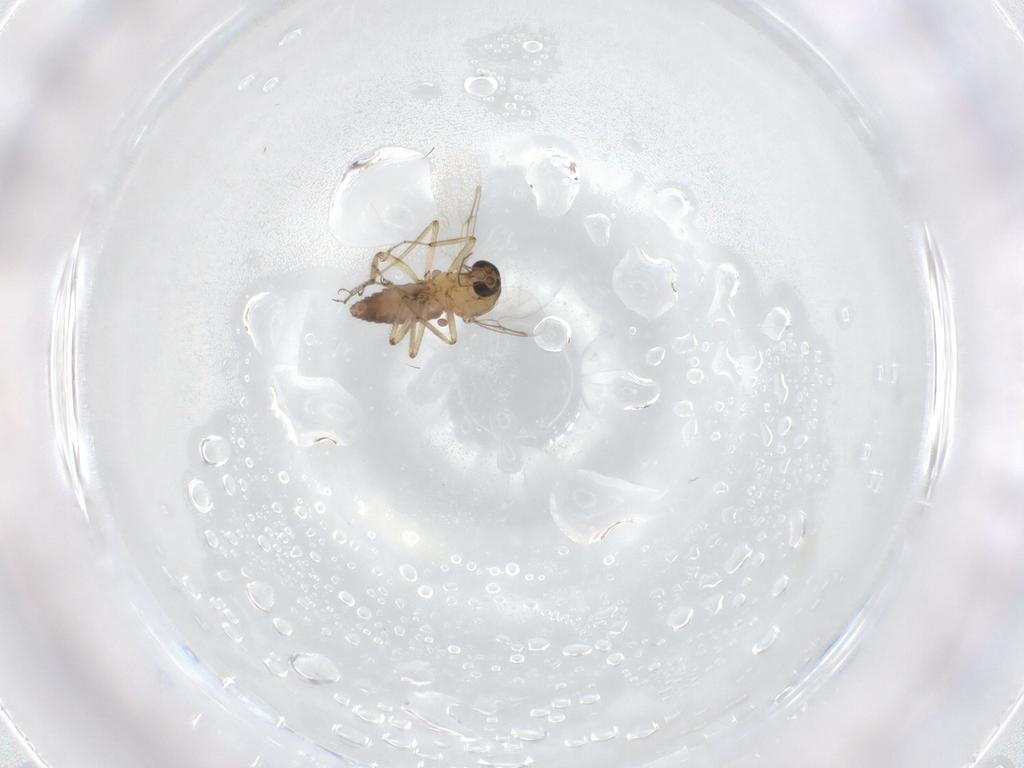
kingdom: Animalia
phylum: Arthropoda
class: Insecta
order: Diptera
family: Ceratopogonidae
